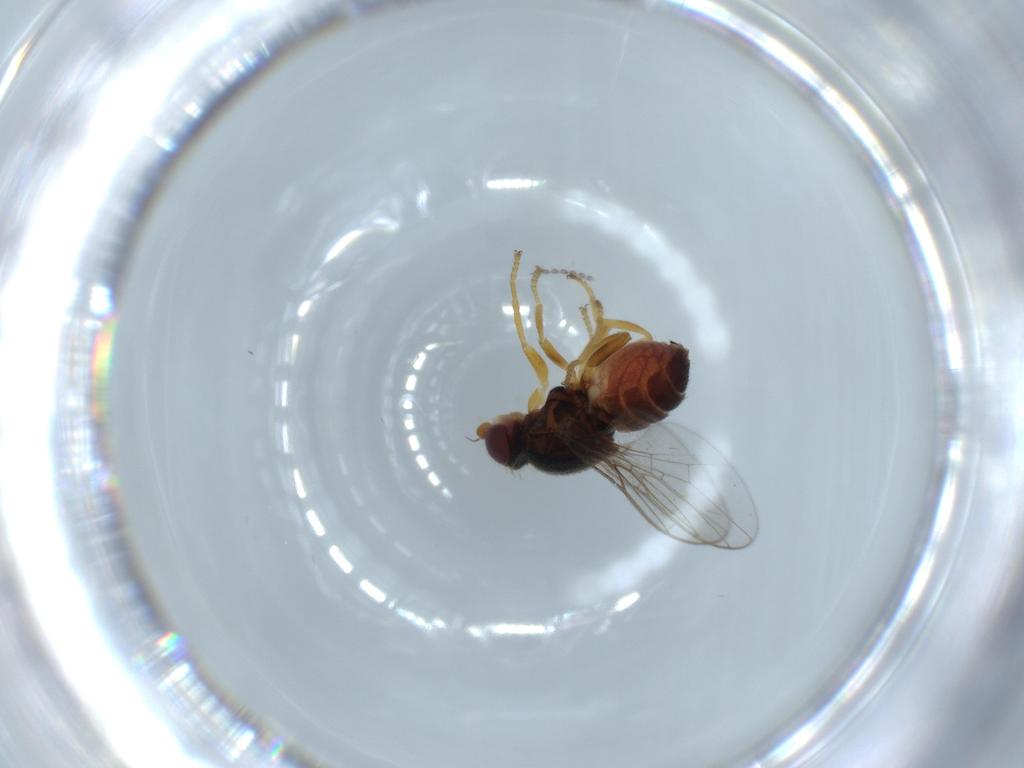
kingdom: Animalia
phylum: Arthropoda
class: Insecta
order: Diptera
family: Chloropidae
